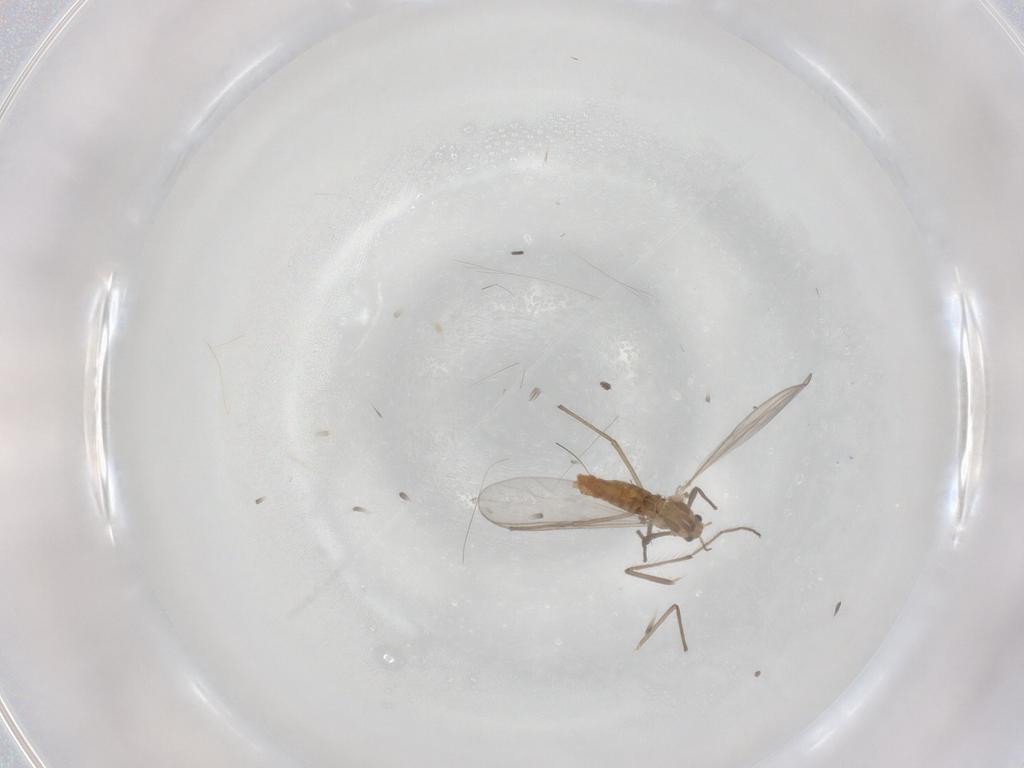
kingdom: Animalia
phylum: Arthropoda
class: Insecta
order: Diptera
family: Chironomidae
